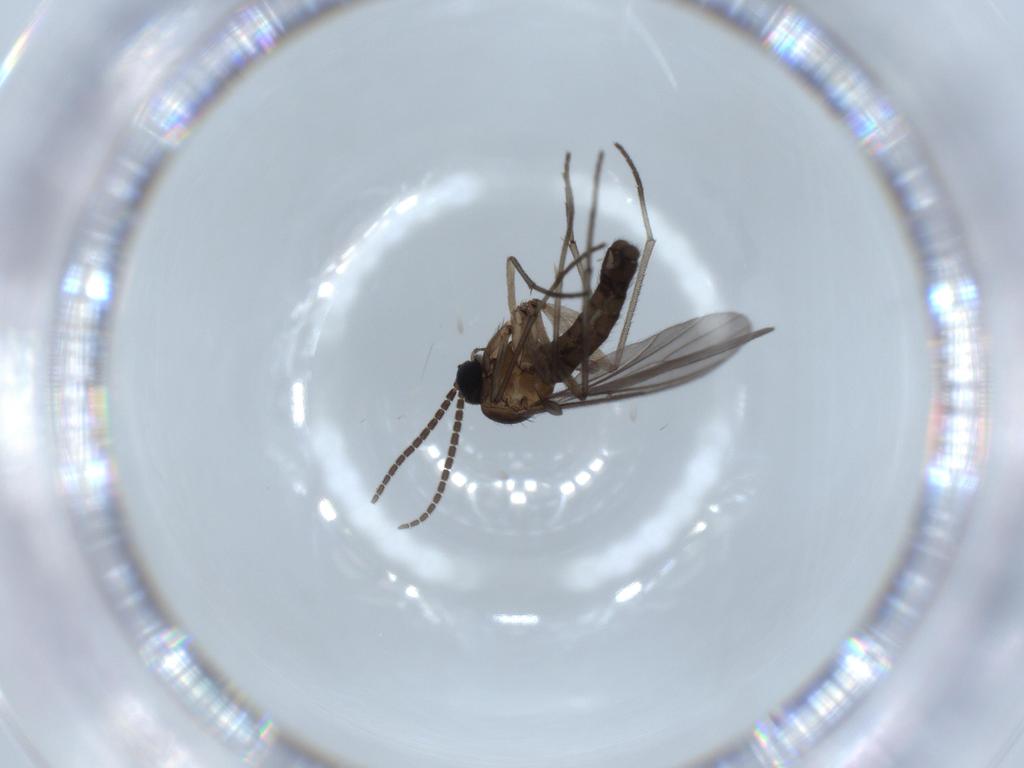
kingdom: Animalia
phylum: Arthropoda
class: Insecta
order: Diptera
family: Sciaridae
